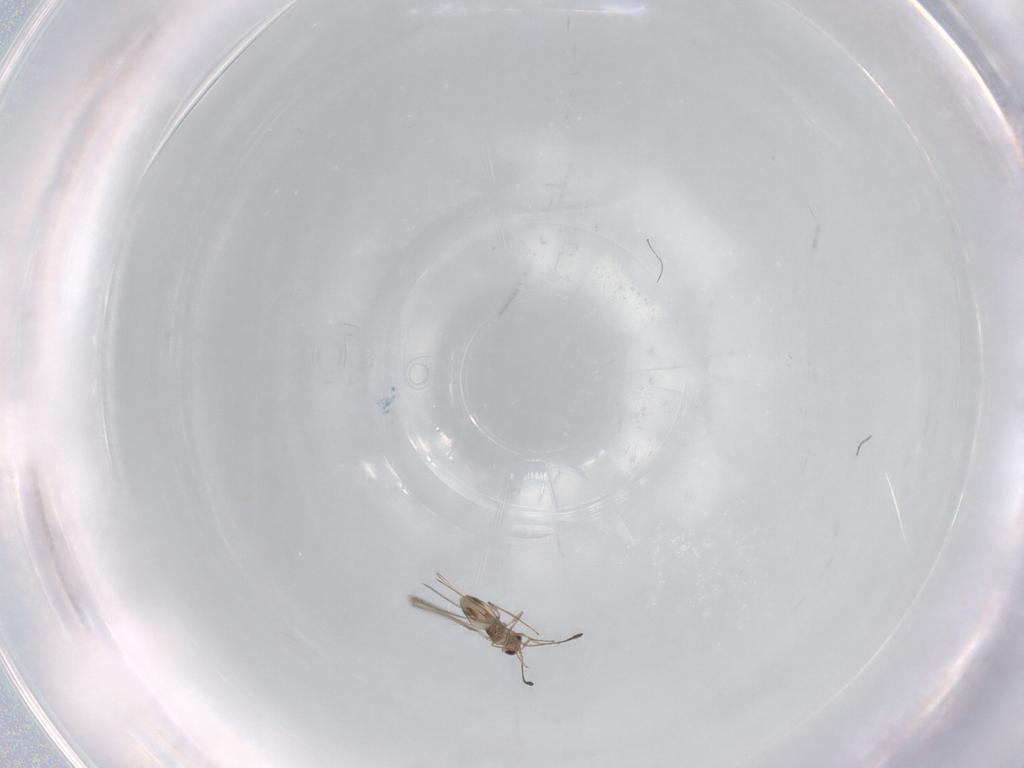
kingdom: Animalia
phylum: Arthropoda
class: Insecta
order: Hymenoptera
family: Mymaridae
